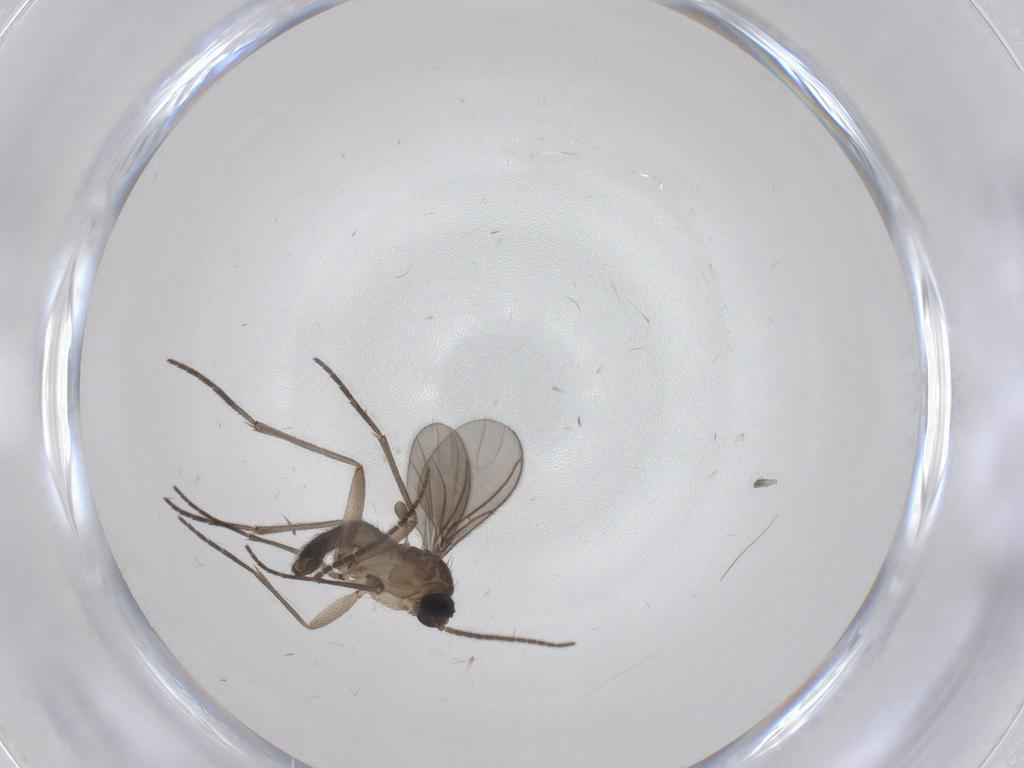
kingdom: Animalia
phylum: Arthropoda
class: Insecta
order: Diptera
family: Sciaridae
